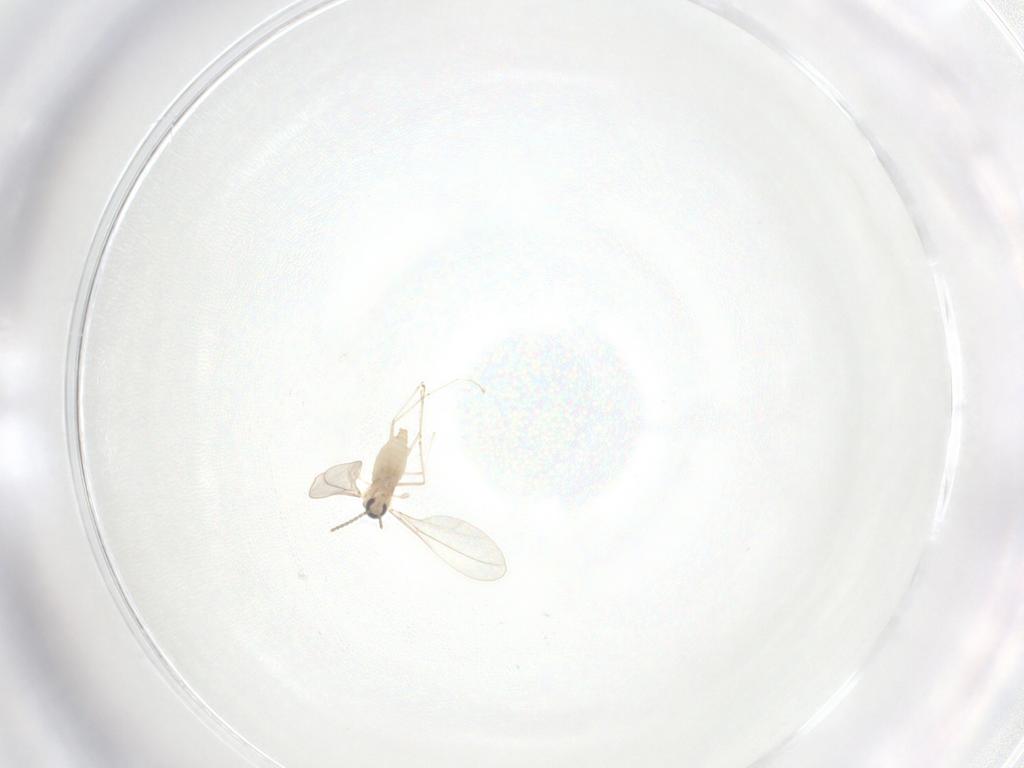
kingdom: Animalia
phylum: Arthropoda
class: Insecta
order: Diptera
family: Cecidomyiidae
